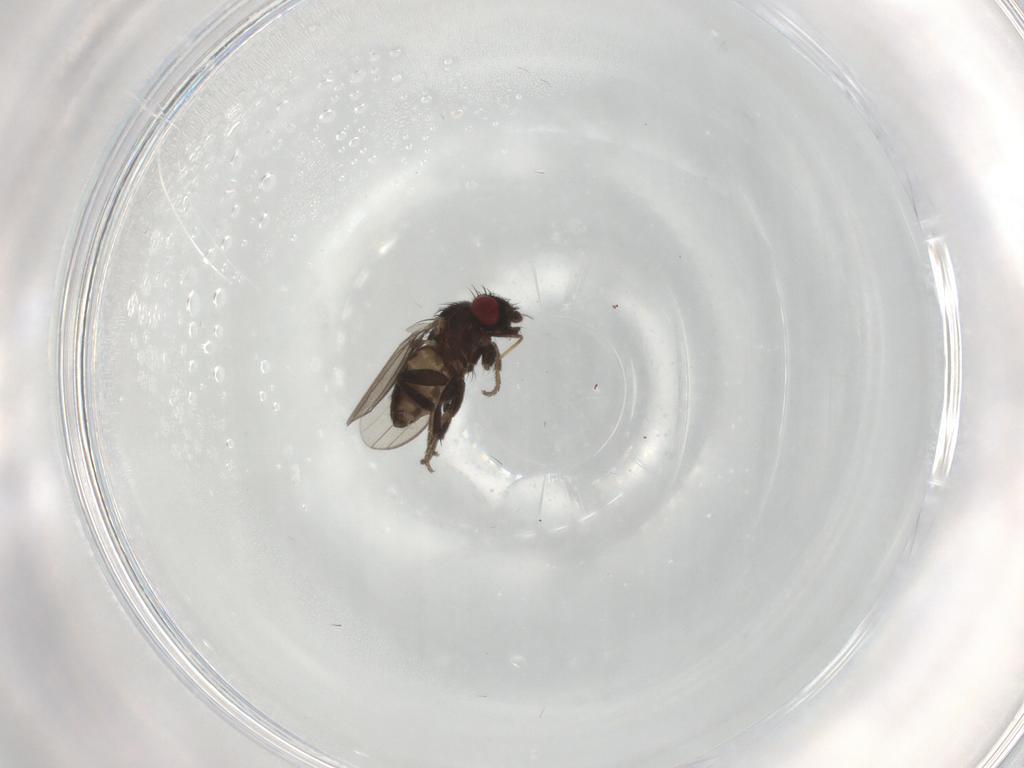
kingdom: Animalia
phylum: Arthropoda
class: Insecta
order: Diptera
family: Milichiidae
